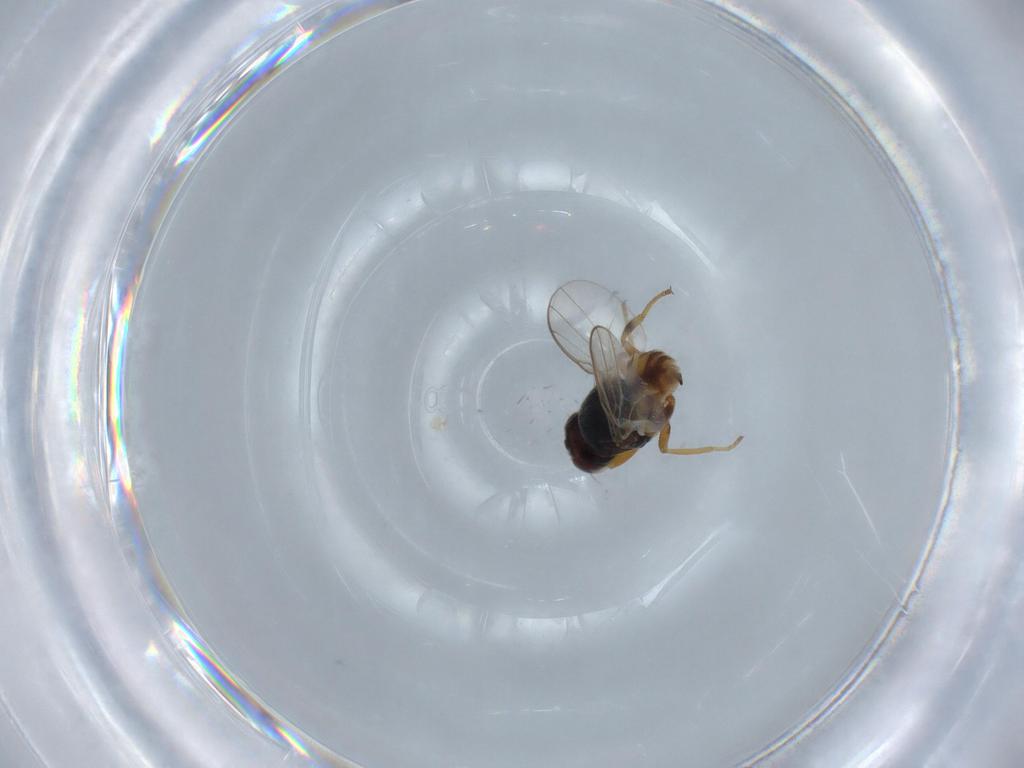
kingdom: Animalia
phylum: Arthropoda
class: Insecta
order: Diptera
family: Chloropidae
